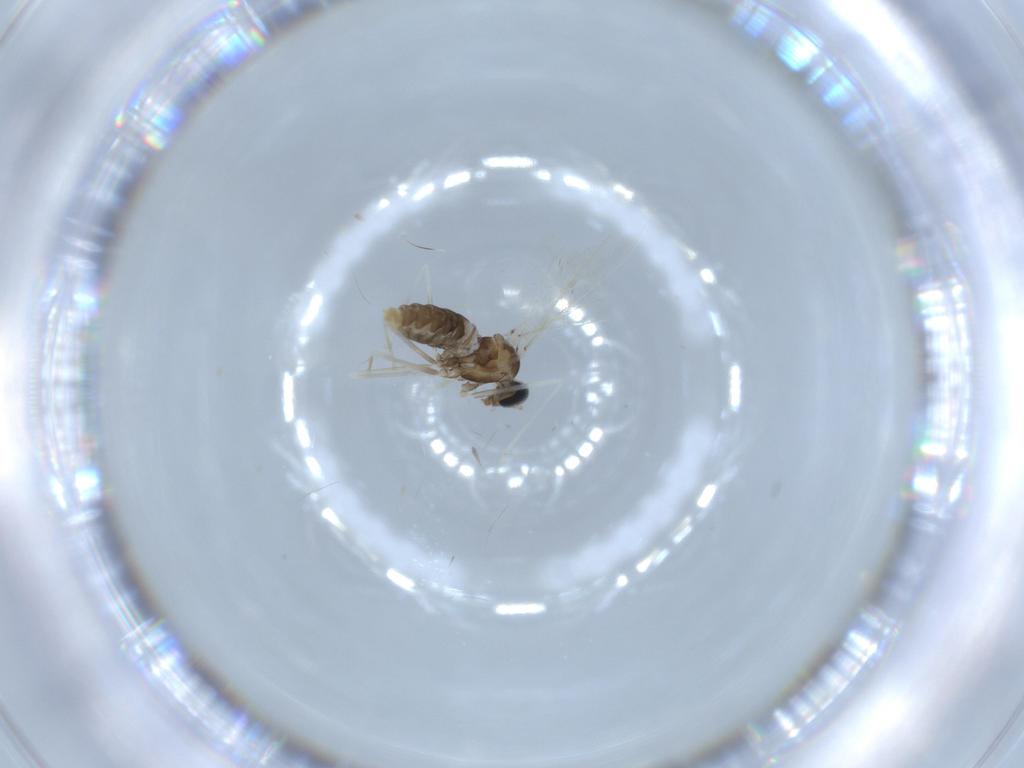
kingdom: Animalia
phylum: Arthropoda
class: Insecta
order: Diptera
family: Cecidomyiidae
